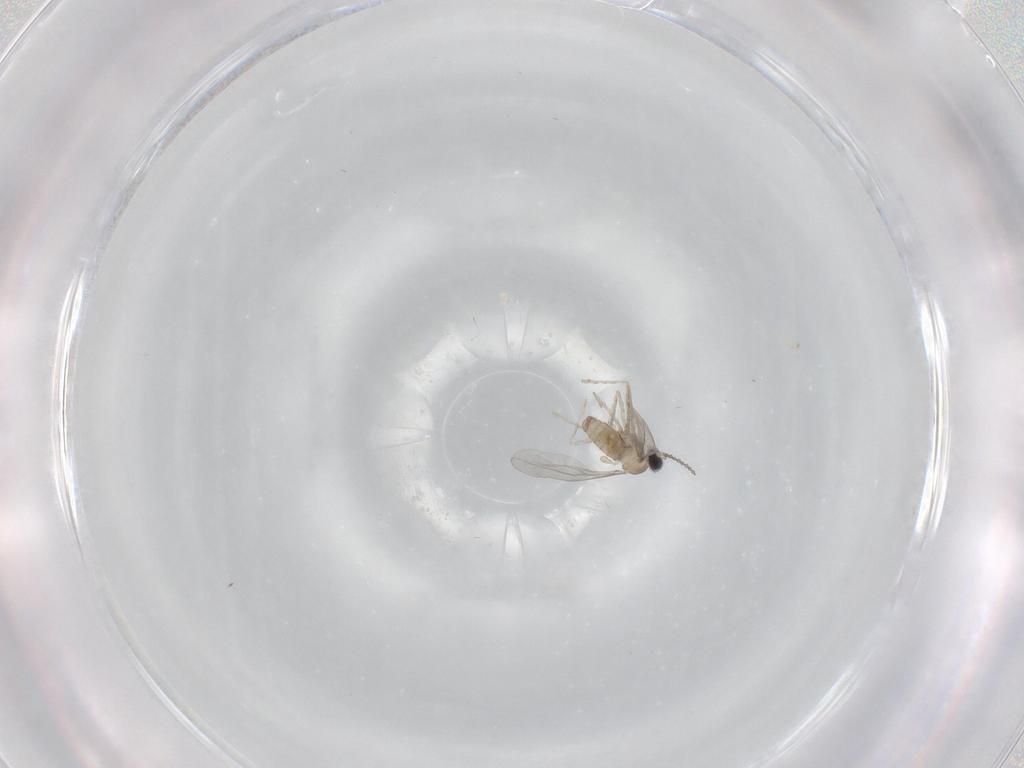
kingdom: Animalia
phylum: Arthropoda
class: Insecta
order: Diptera
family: Cecidomyiidae
